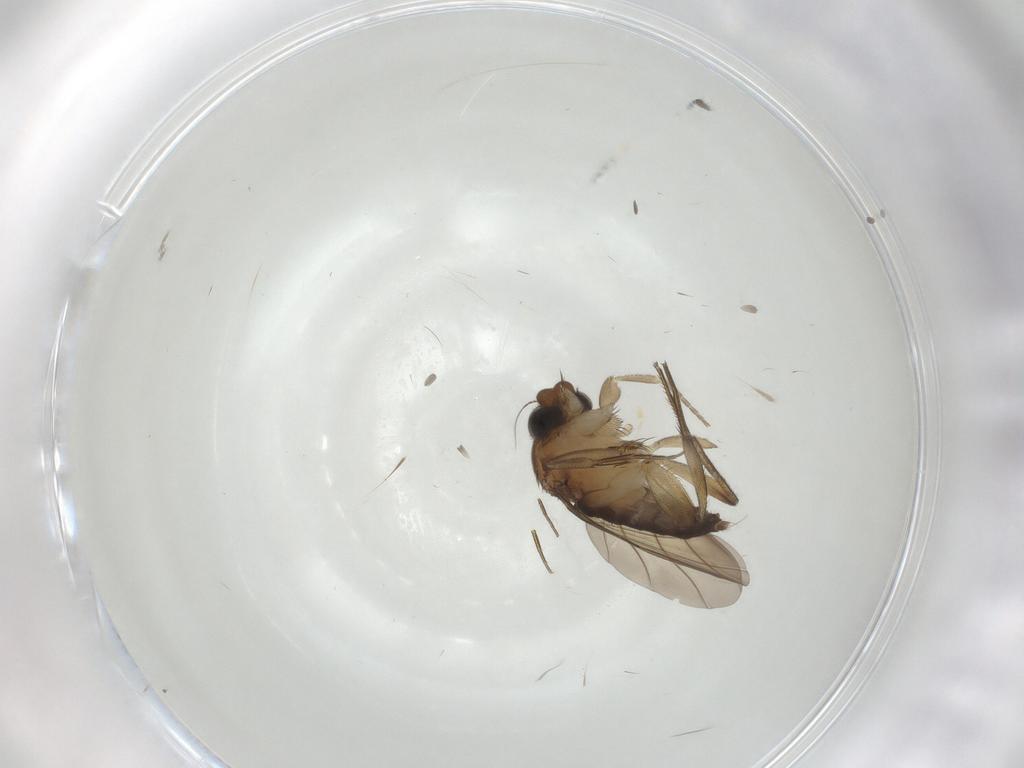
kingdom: Animalia
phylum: Arthropoda
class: Insecta
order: Diptera
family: Phoridae
